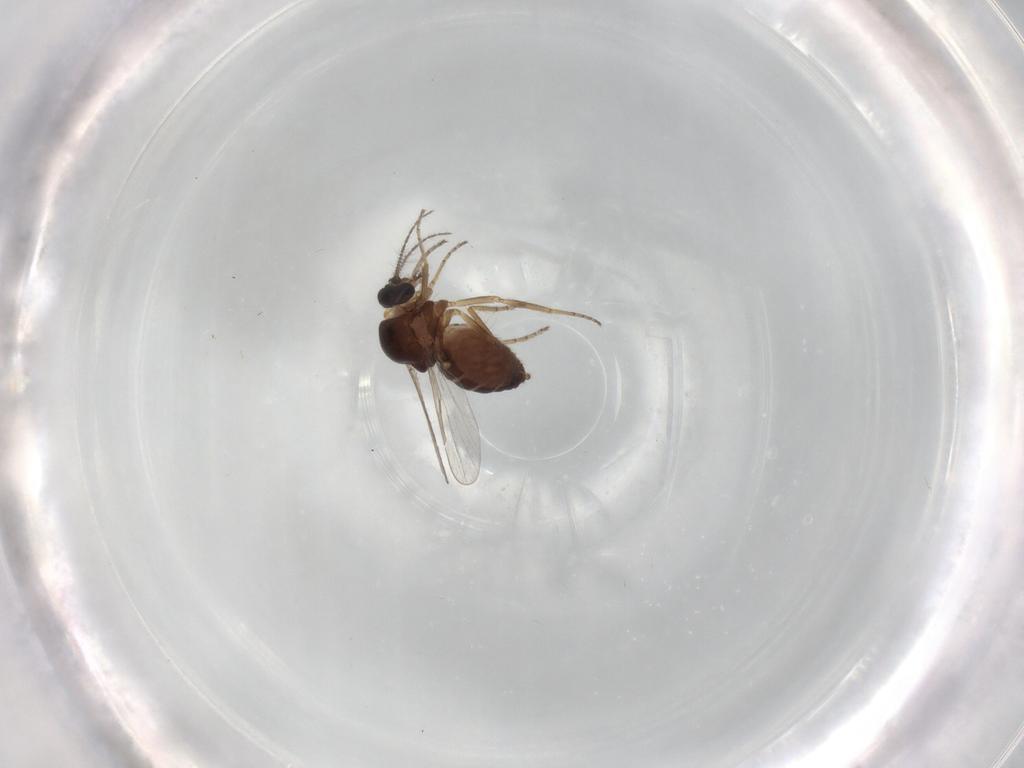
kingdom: Animalia
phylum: Arthropoda
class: Insecta
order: Diptera
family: Ceratopogonidae
